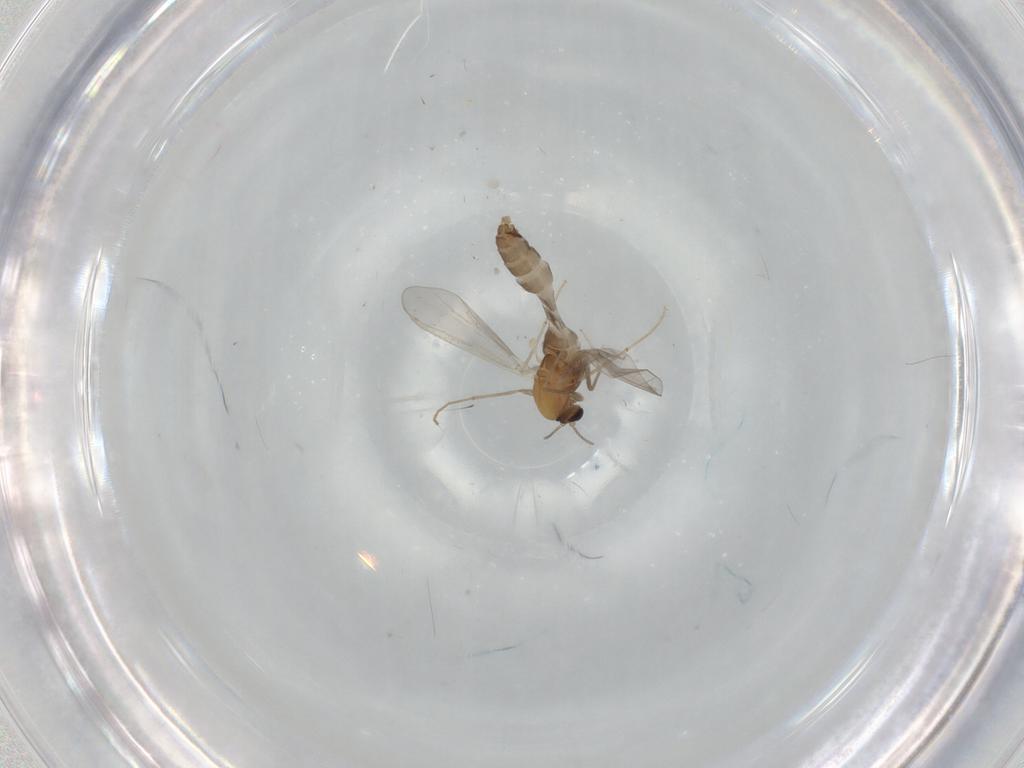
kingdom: Animalia
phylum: Arthropoda
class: Insecta
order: Diptera
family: Chironomidae
